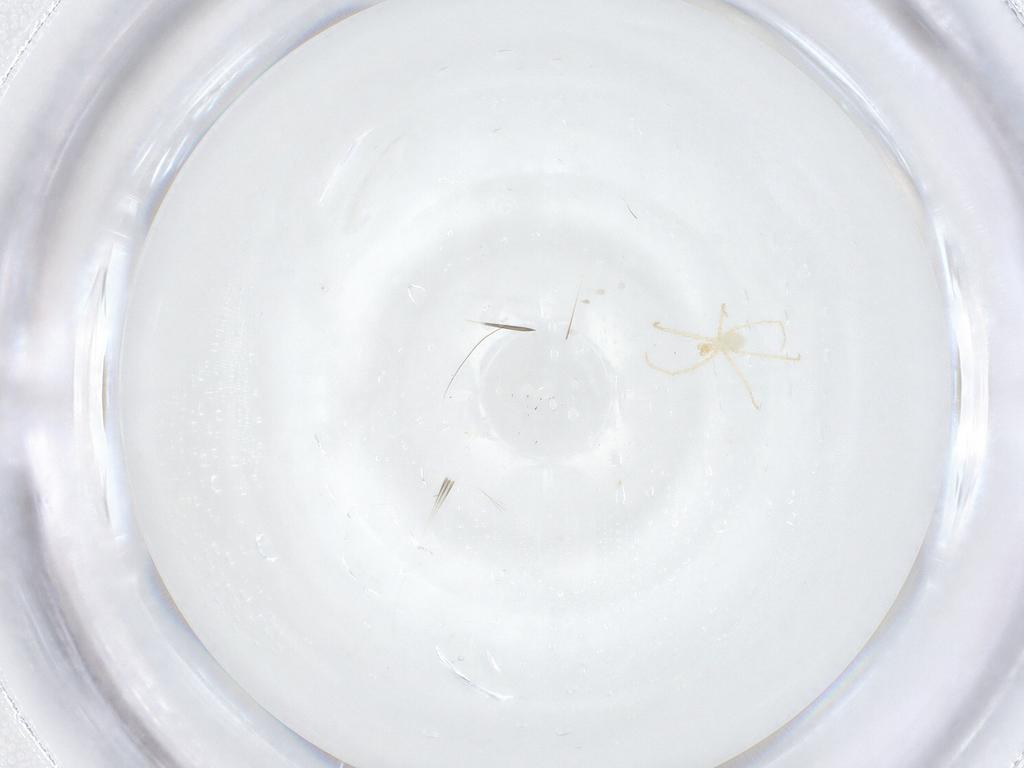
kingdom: Animalia
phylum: Arthropoda
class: Arachnida
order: Trombidiformes
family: Erythraeidae
